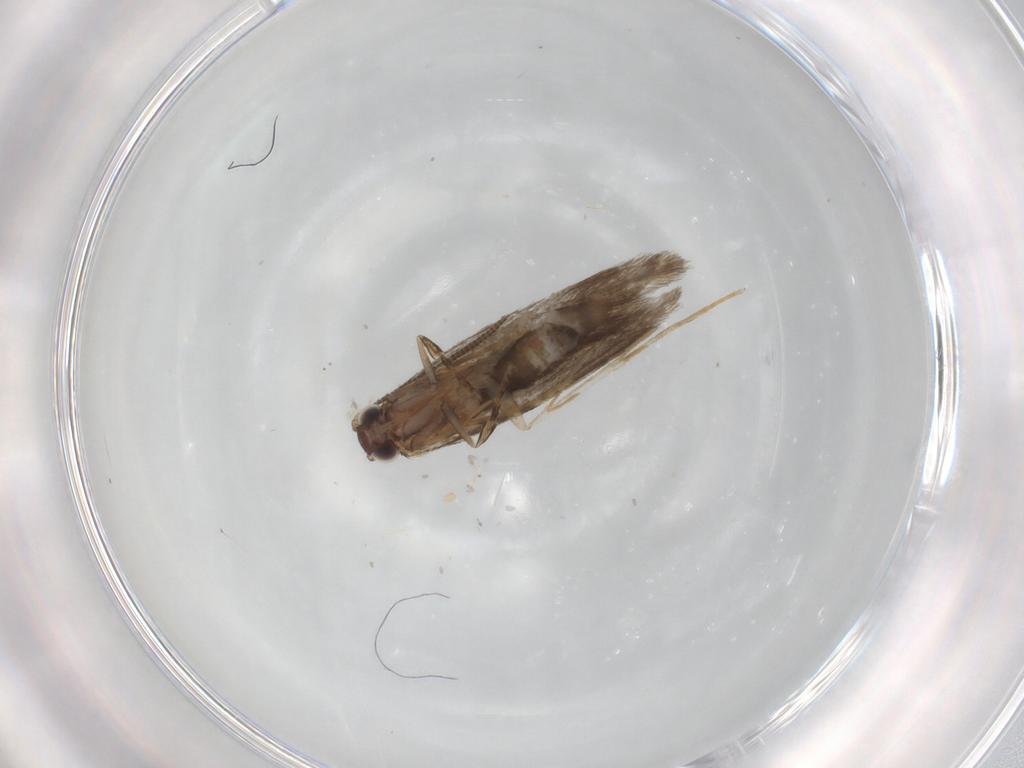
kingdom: Animalia
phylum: Arthropoda
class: Insecta
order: Lepidoptera
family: Tineidae
